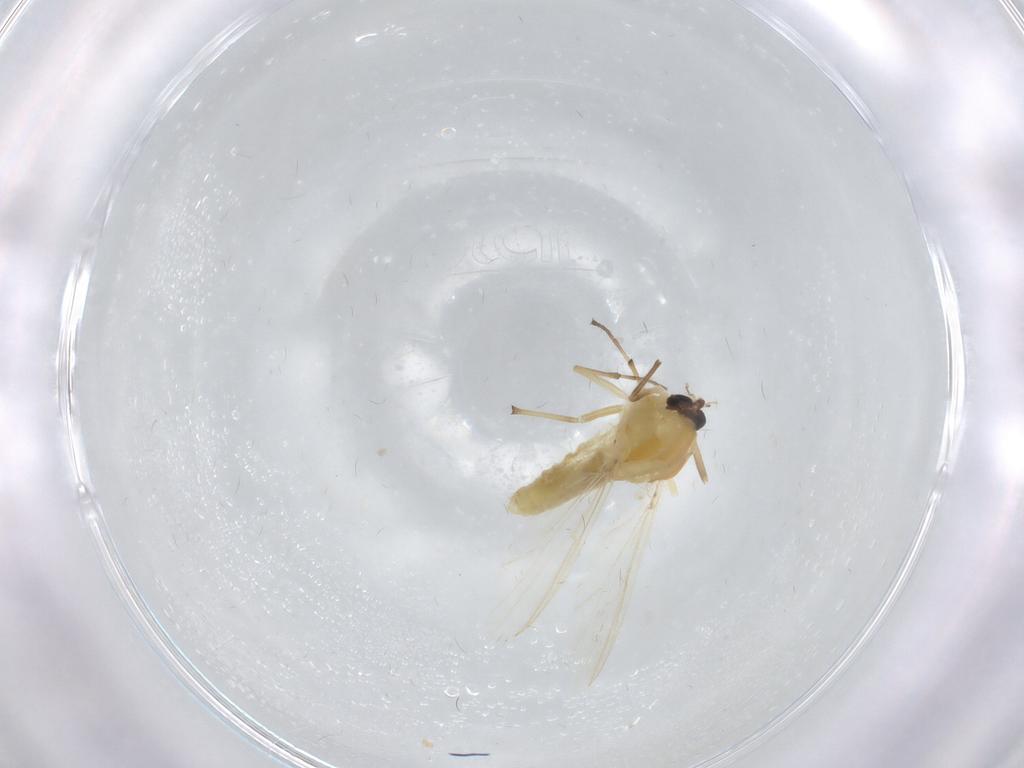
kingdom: Animalia
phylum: Arthropoda
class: Insecta
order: Diptera
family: Chironomidae
